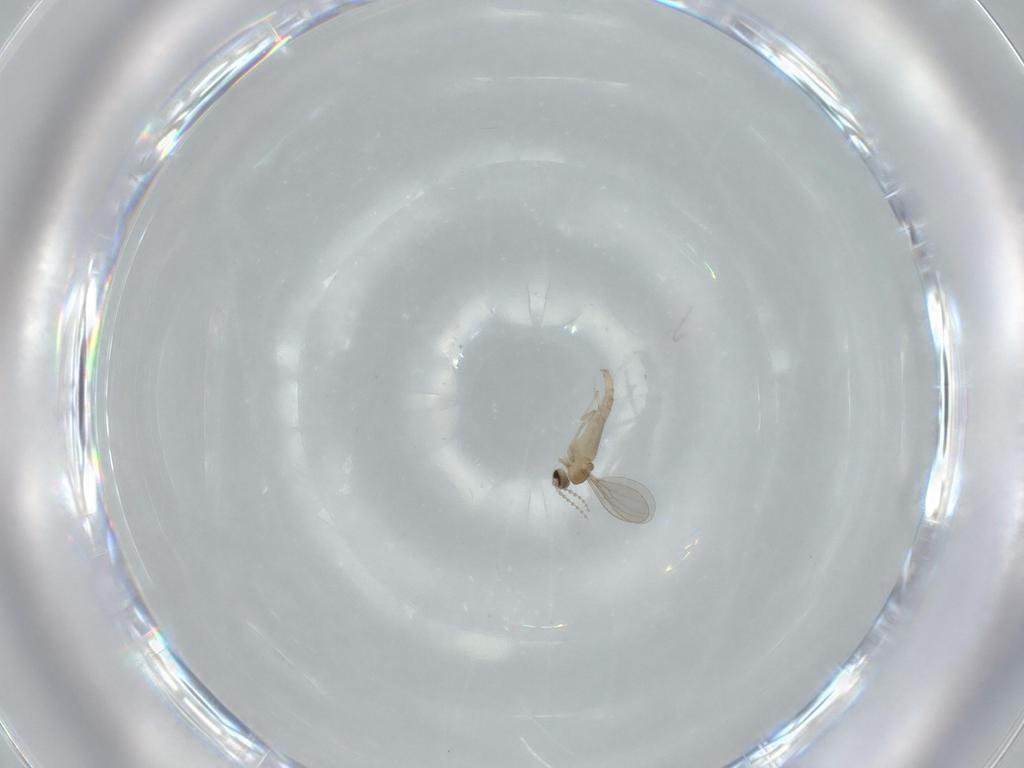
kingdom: Animalia
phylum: Arthropoda
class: Insecta
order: Diptera
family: Cecidomyiidae
